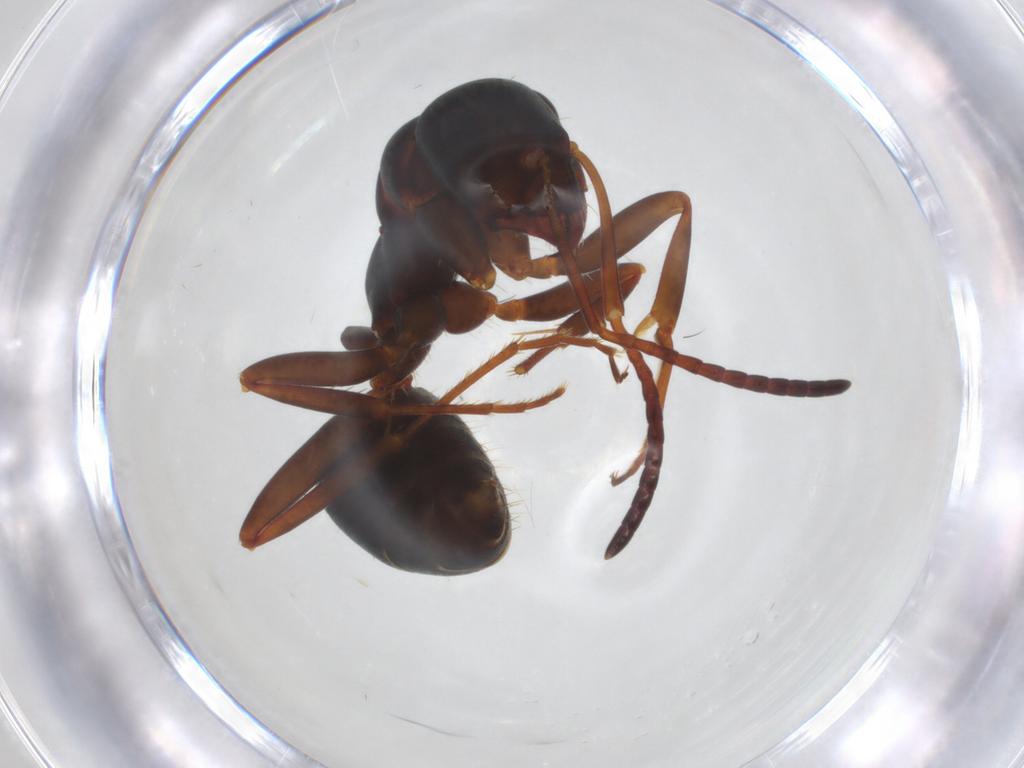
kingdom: Animalia
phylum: Arthropoda
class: Insecta
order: Hymenoptera
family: Formicidae
